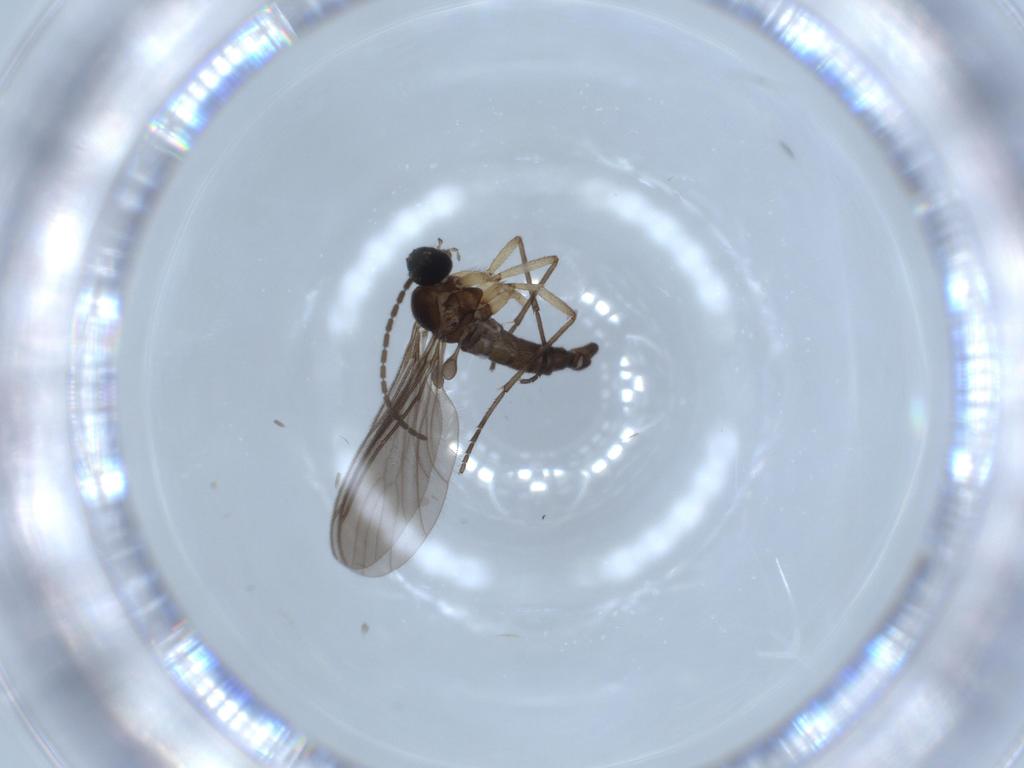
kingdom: Animalia
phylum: Arthropoda
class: Insecta
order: Diptera
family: Sciaridae
